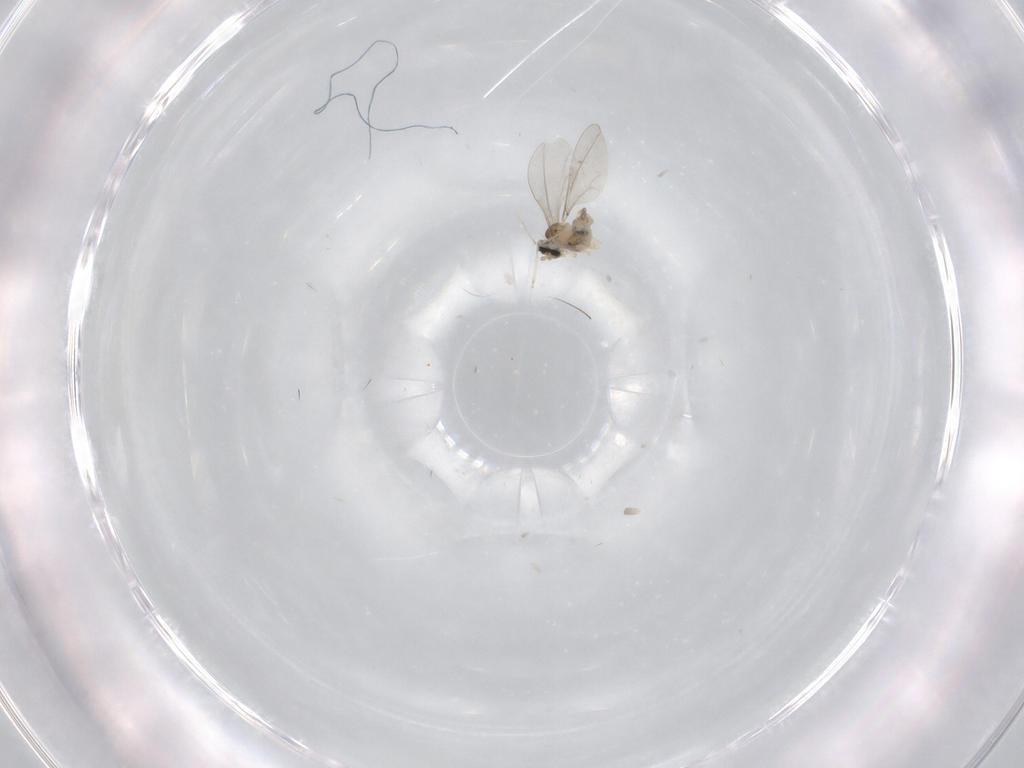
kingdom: Animalia
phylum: Arthropoda
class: Insecta
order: Diptera
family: Cecidomyiidae
